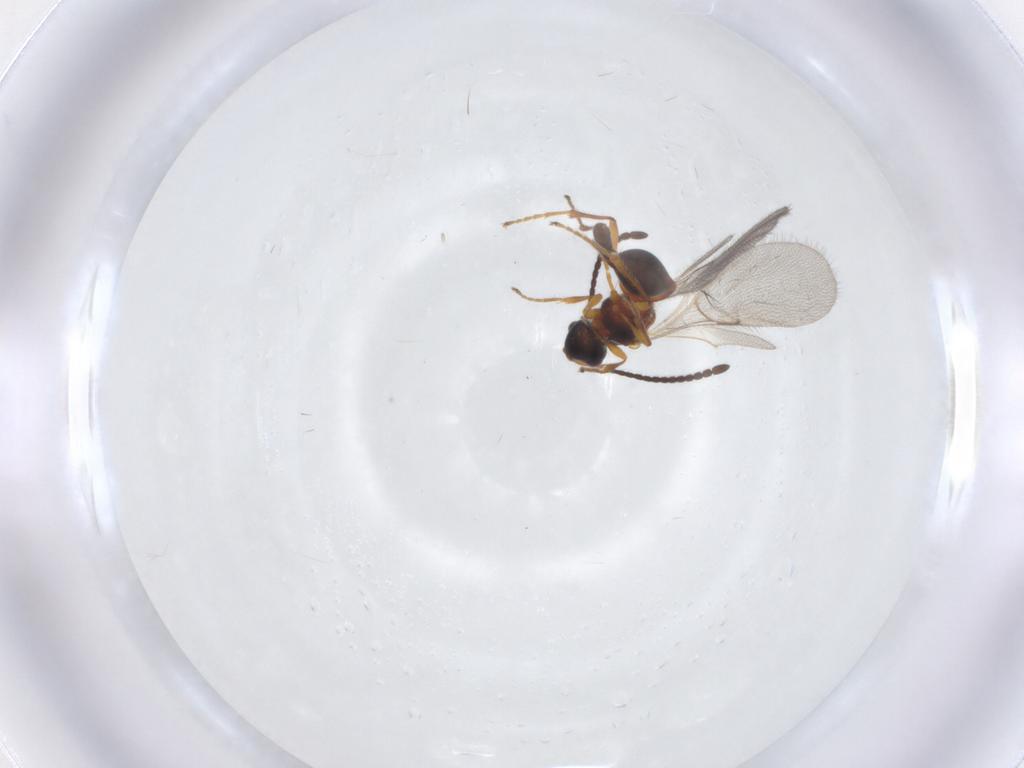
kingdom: Animalia
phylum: Arthropoda
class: Insecta
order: Hymenoptera
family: Diapriidae
